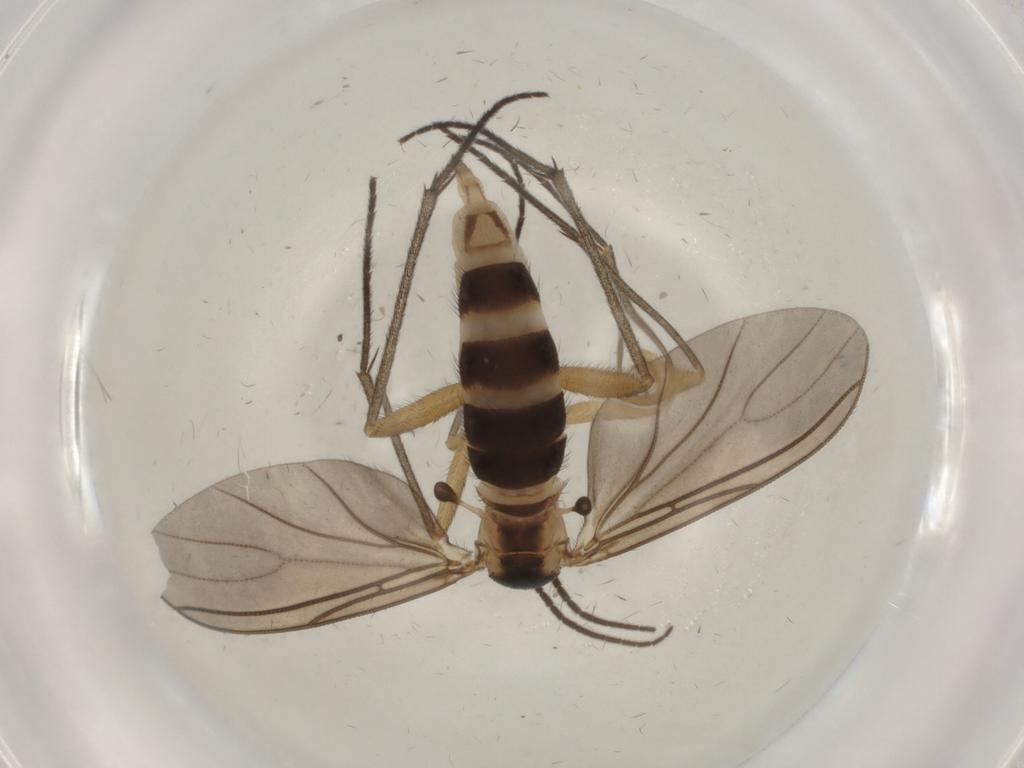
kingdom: Animalia
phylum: Arthropoda
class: Insecta
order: Diptera
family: Sciaridae
